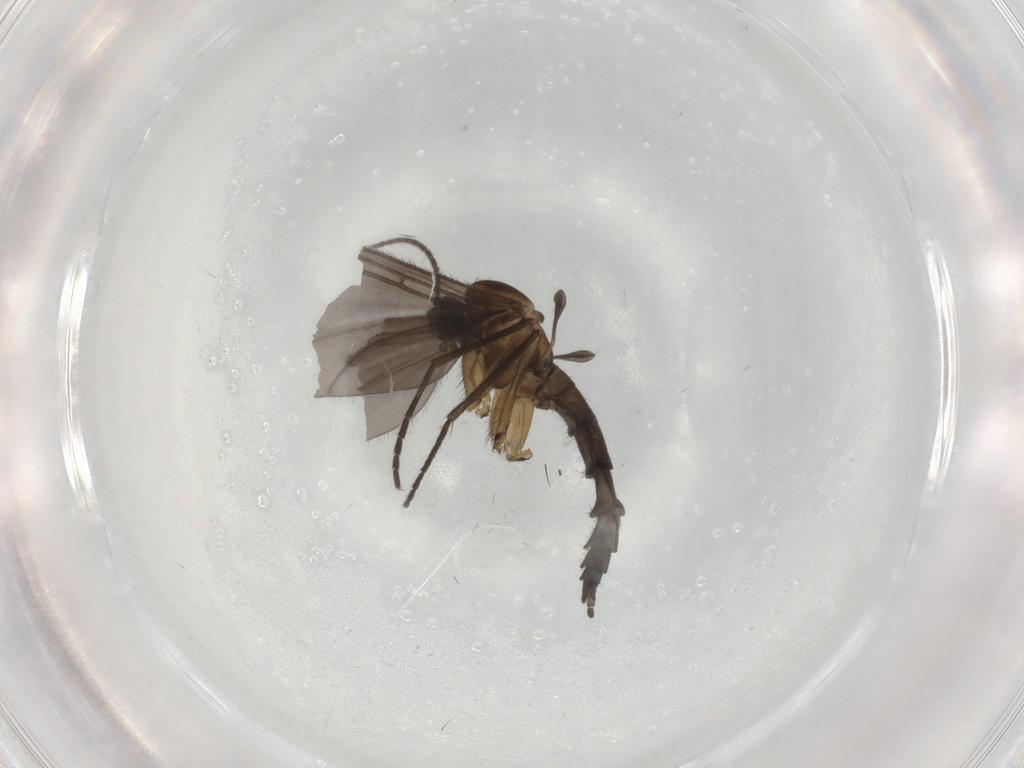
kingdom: Animalia
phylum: Arthropoda
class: Insecta
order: Diptera
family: Sciaridae
